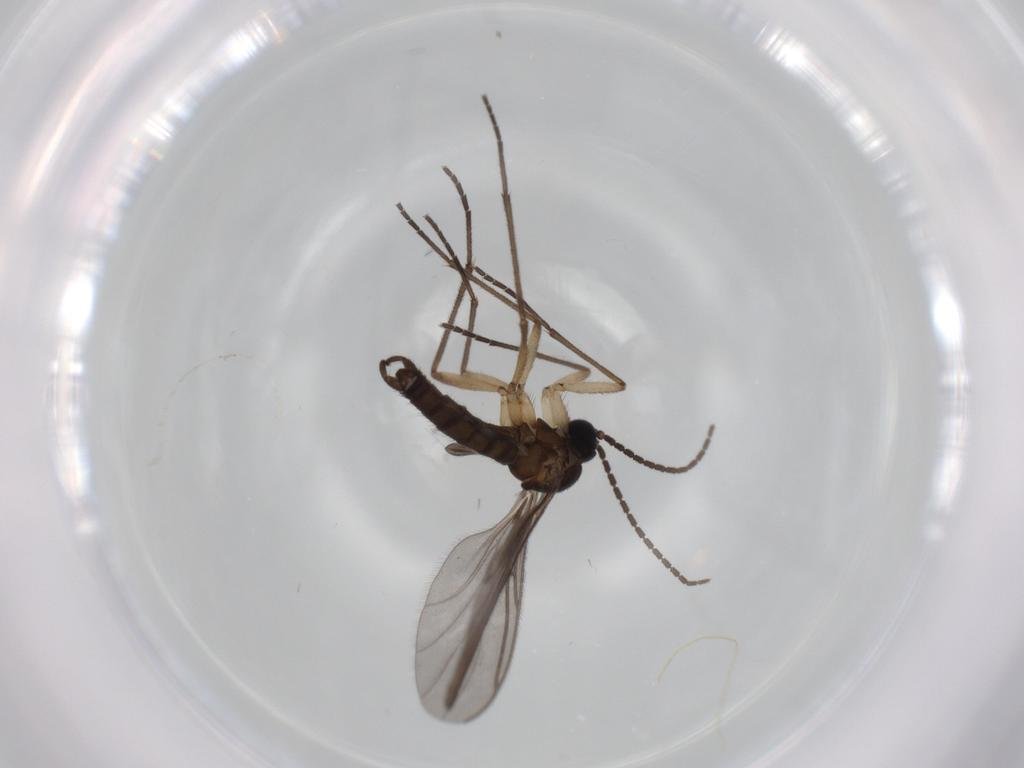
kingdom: Animalia
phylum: Arthropoda
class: Insecta
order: Diptera
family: Sciaridae
